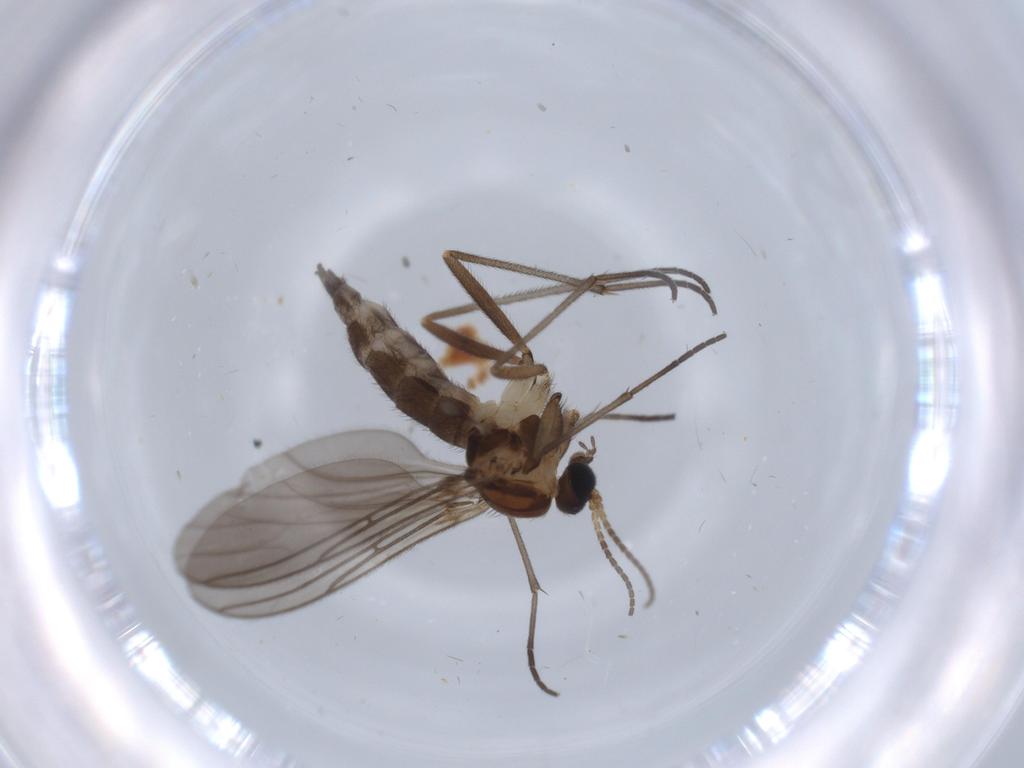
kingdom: Animalia
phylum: Arthropoda
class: Insecta
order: Diptera
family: Sciaridae
